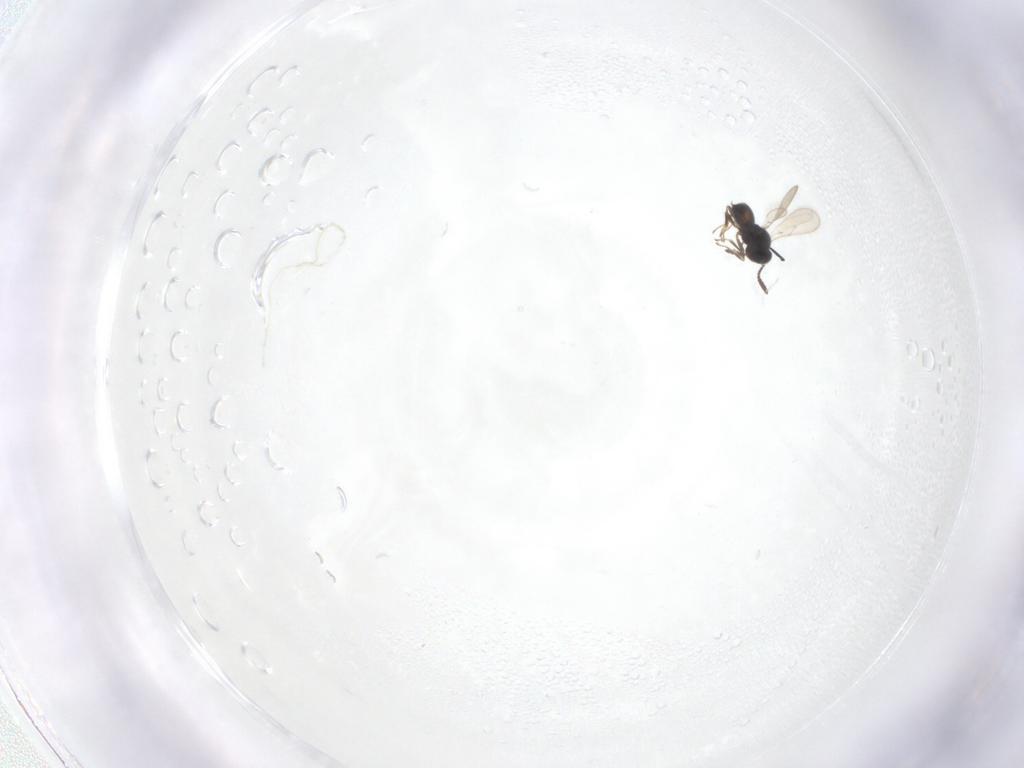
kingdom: Animalia
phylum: Arthropoda
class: Insecta
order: Hymenoptera
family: Scelionidae
